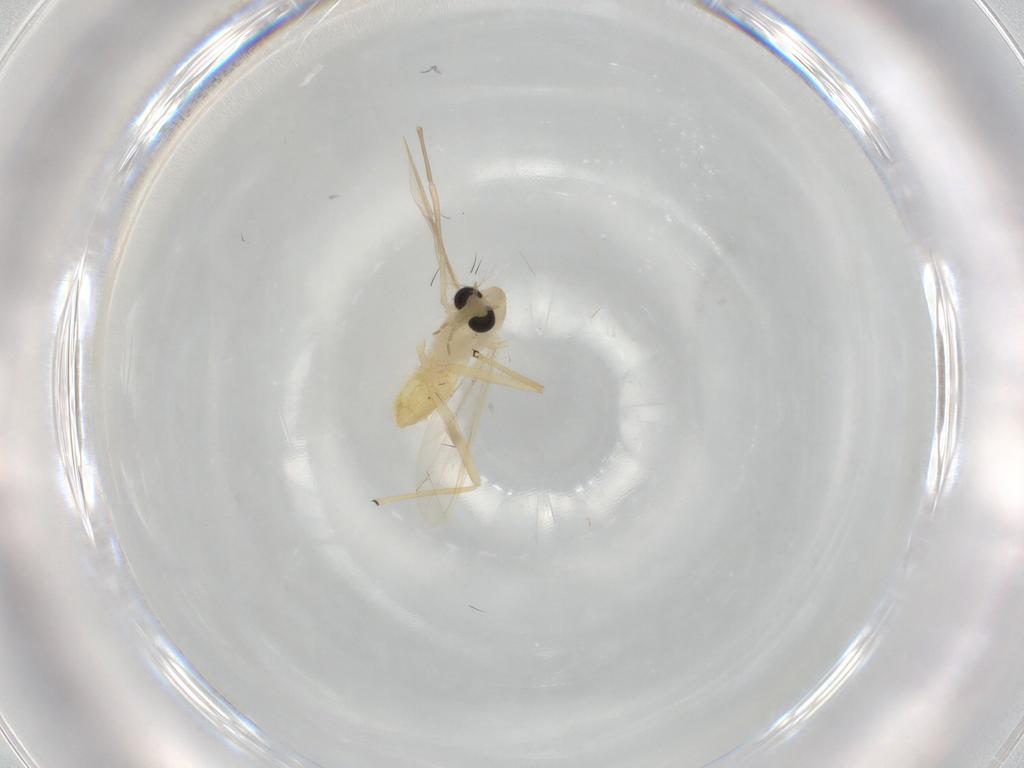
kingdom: Animalia
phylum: Arthropoda
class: Insecta
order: Diptera
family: Chironomidae
